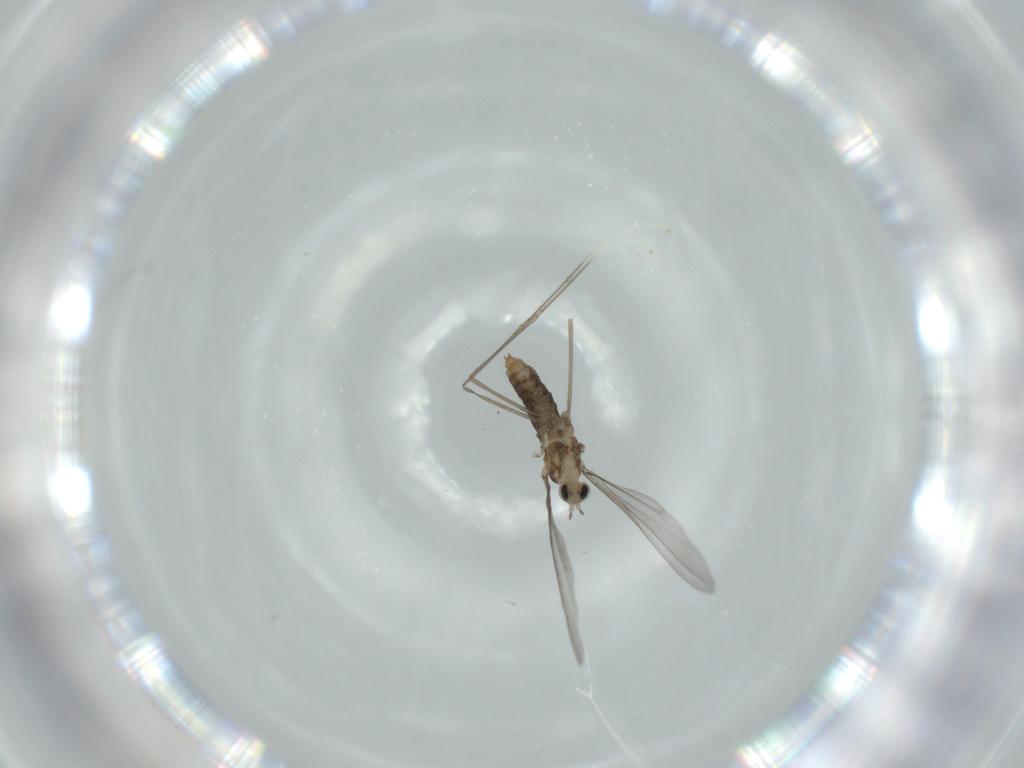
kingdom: Animalia
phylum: Arthropoda
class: Insecta
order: Diptera
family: Cecidomyiidae
